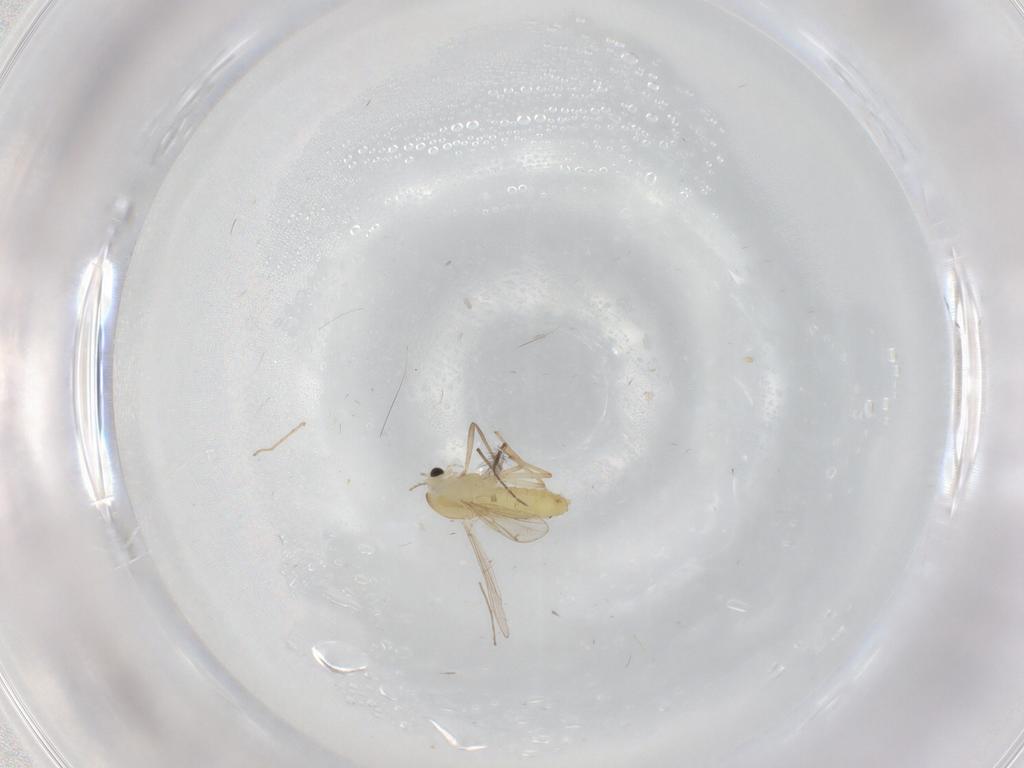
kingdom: Animalia
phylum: Arthropoda
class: Insecta
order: Diptera
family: Chironomidae
